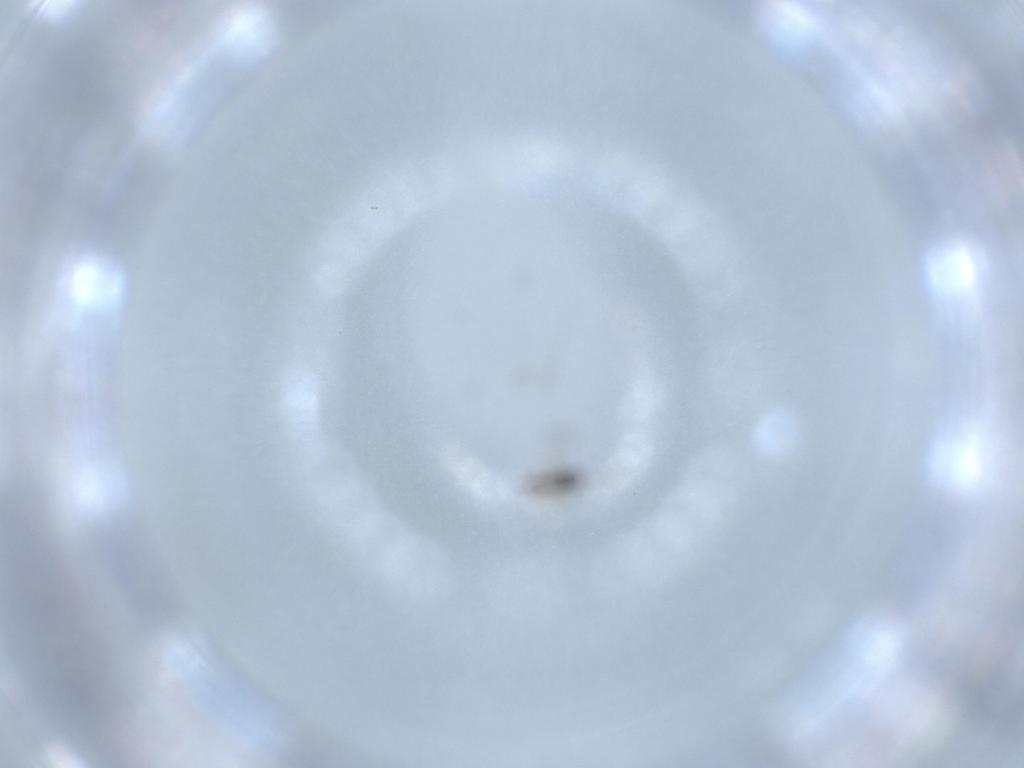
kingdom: Animalia
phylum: Arthropoda
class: Insecta
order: Hymenoptera
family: Mymaridae
